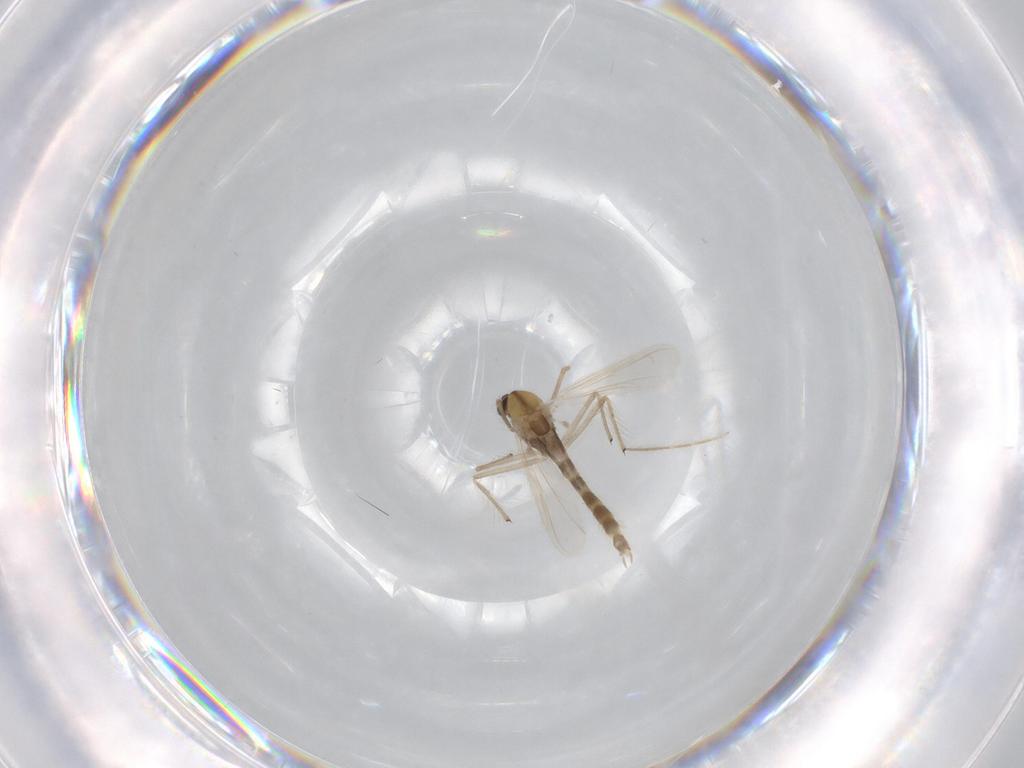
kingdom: Animalia
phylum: Arthropoda
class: Insecta
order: Diptera
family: Chironomidae
